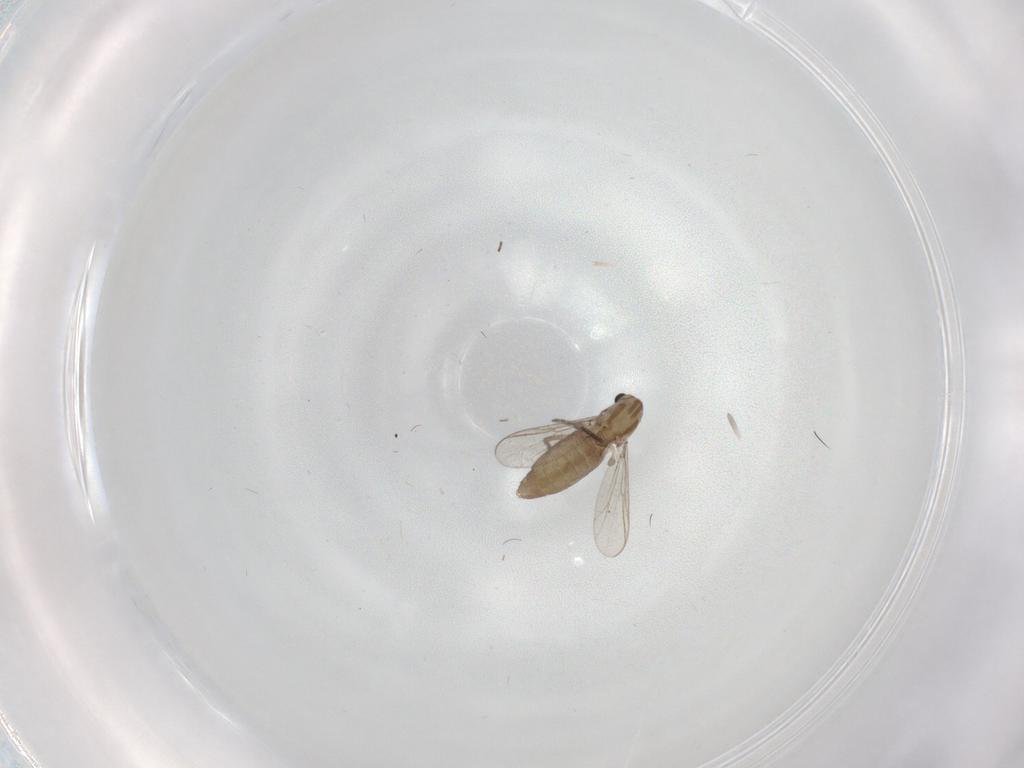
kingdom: Animalia
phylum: Arthropoda
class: Insecta
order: Diptera
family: Chironomidae
